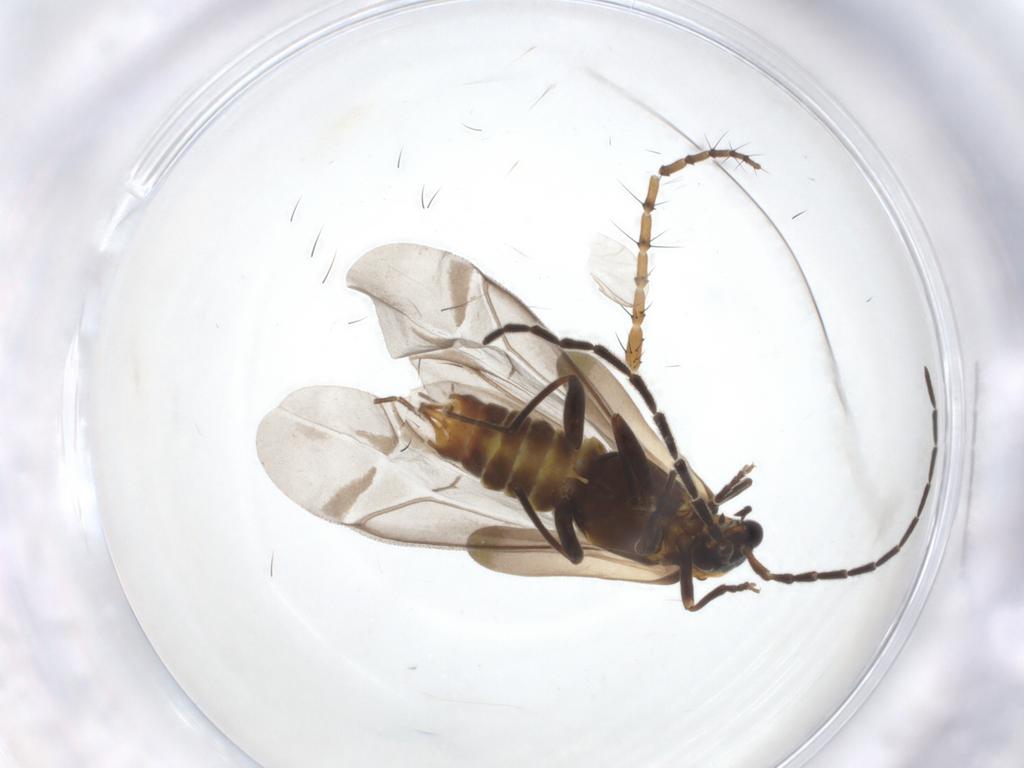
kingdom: Animalia
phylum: Arthropoda
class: Insecta
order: Coleoptera
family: Cantharidae
